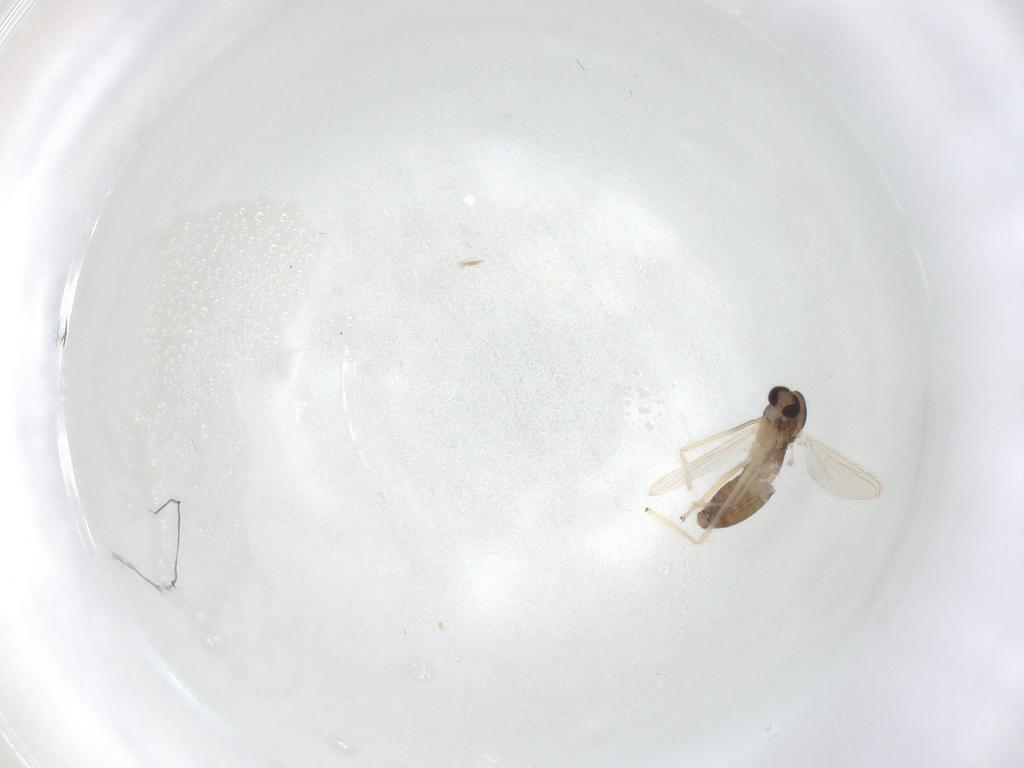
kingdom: Animalia
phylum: Arthropoda
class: Insecta
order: Diptera
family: Chironomidae
